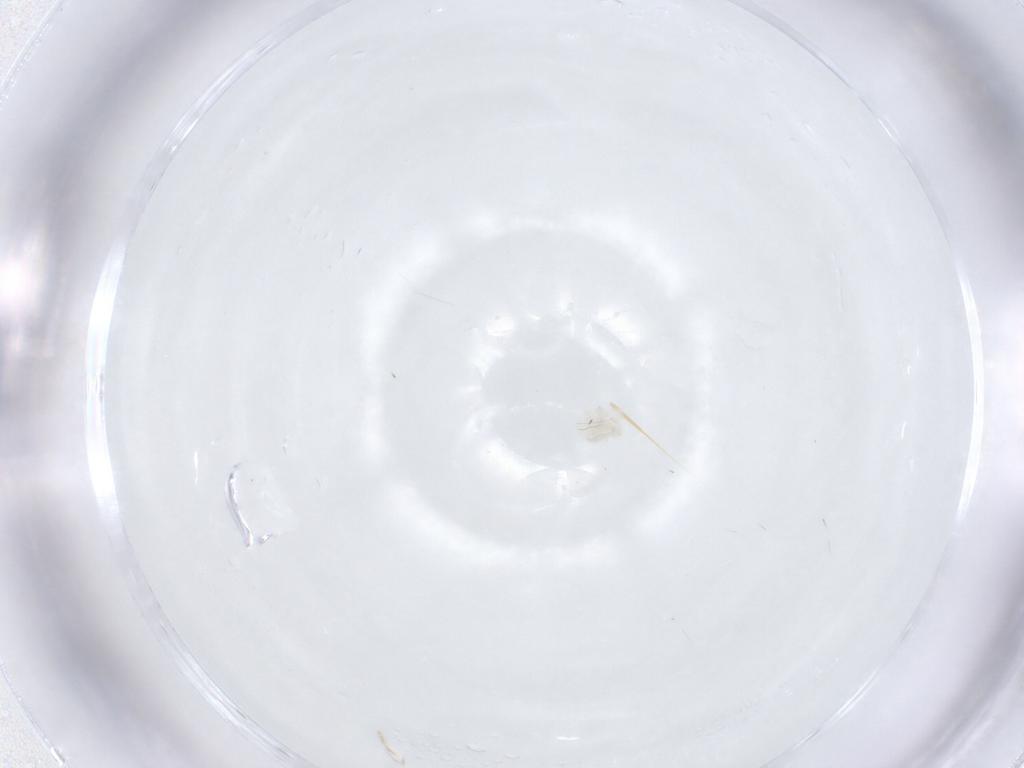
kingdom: Animalia
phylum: Arthropoda
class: Arachnida
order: Trombidiformes
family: Anystidae
